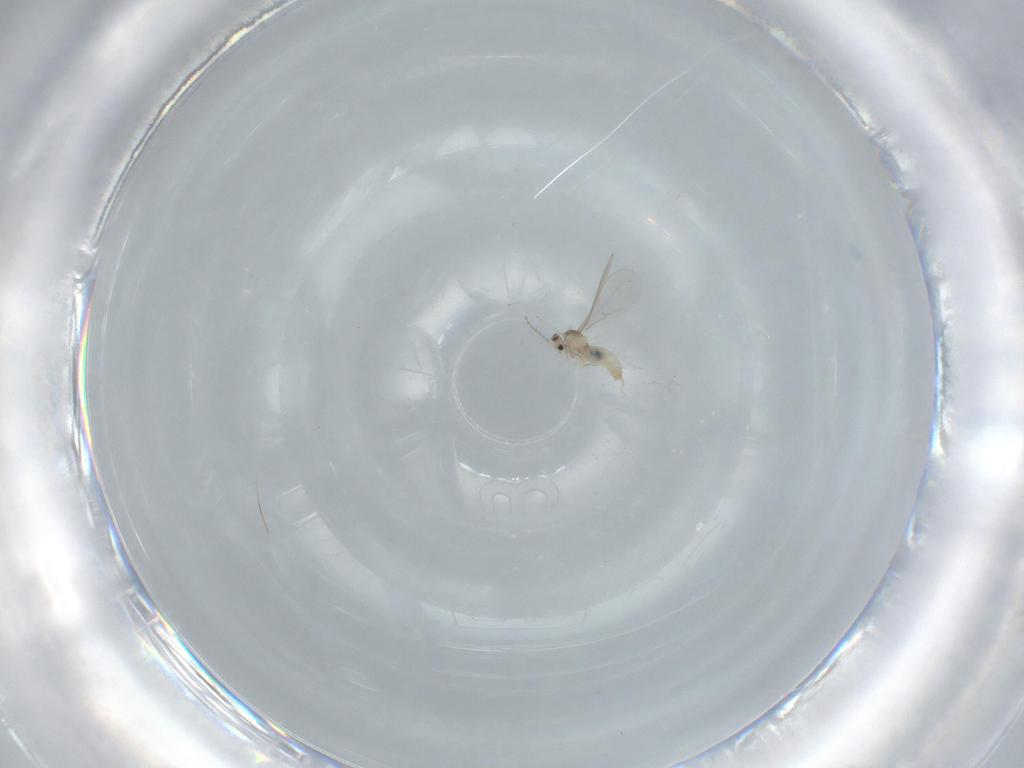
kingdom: Animalia
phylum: Arthropoda
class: Insecta
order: Diptera
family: Cecidomyiidae
